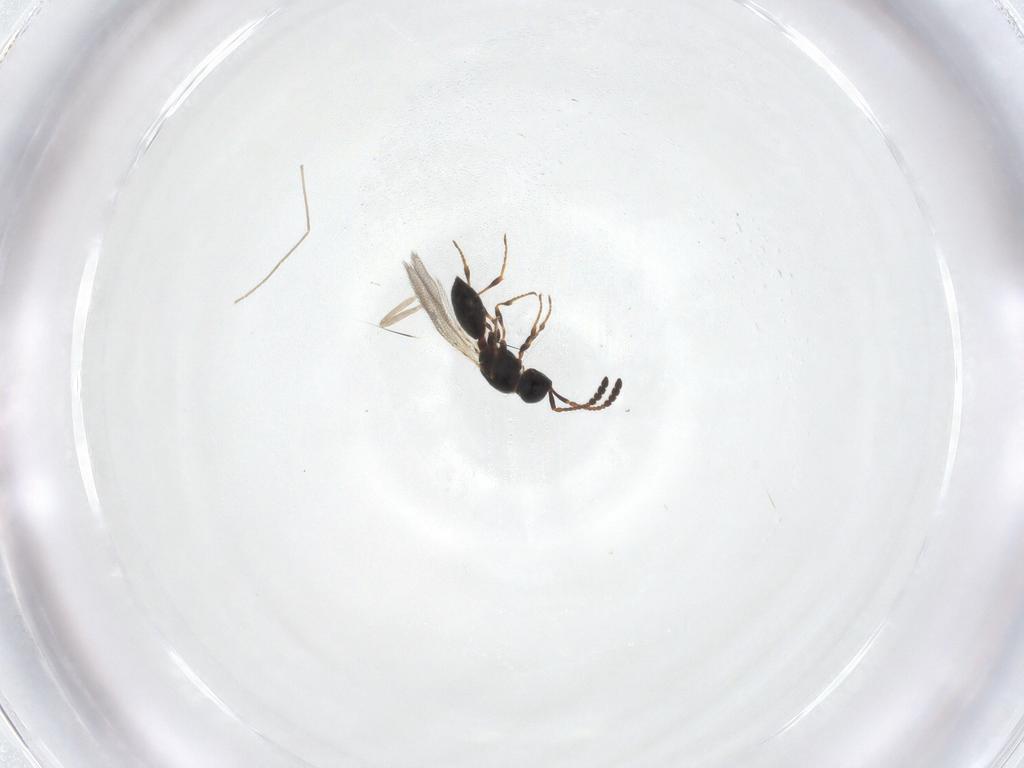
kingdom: Animalia
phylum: Arthropoda
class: Insecta
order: Hymenoptera
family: Diapriidae
